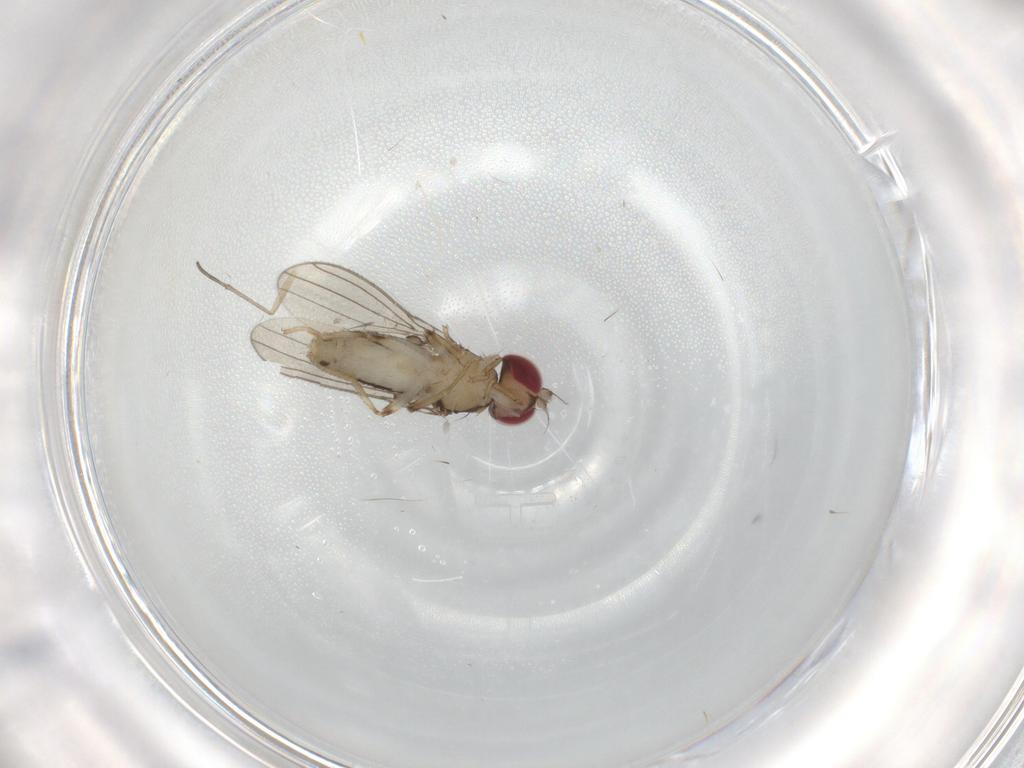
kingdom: Animalia
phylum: Arthropoda
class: Insecta
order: Diptera
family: Anthomyzidae
